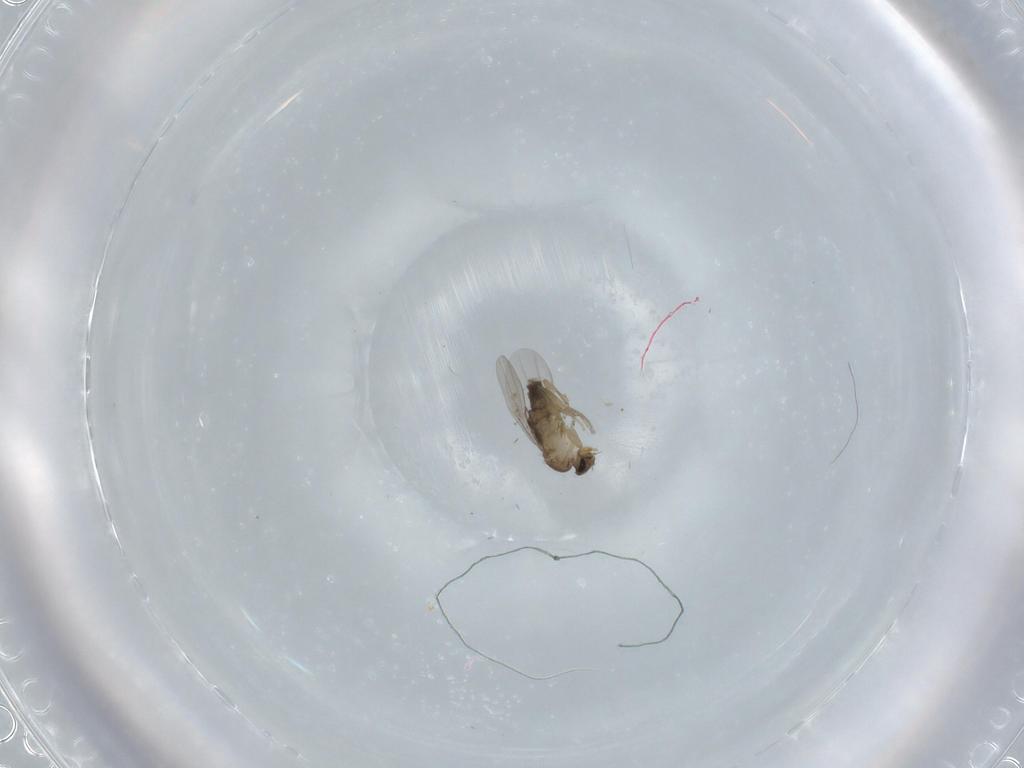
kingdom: Animalia
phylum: Arthropoda
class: Insecta
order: Diptera
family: Phoridae
